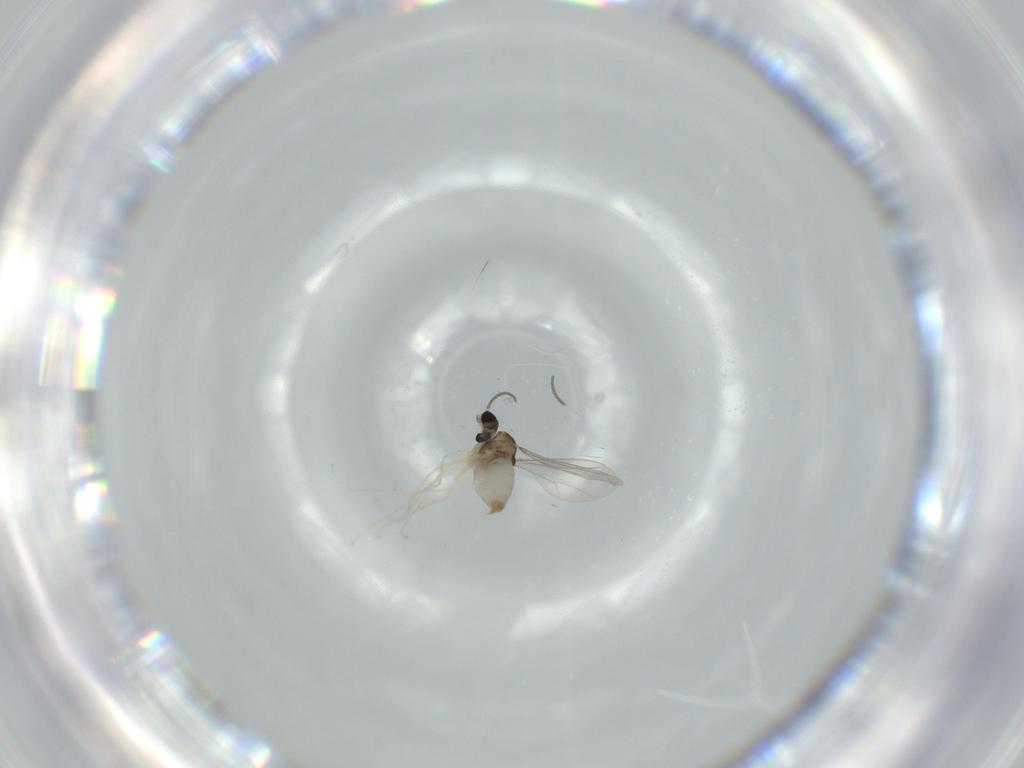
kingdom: Animalia
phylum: Arthropoda
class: Insecta
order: Diptera
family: Cecidomyiidae
